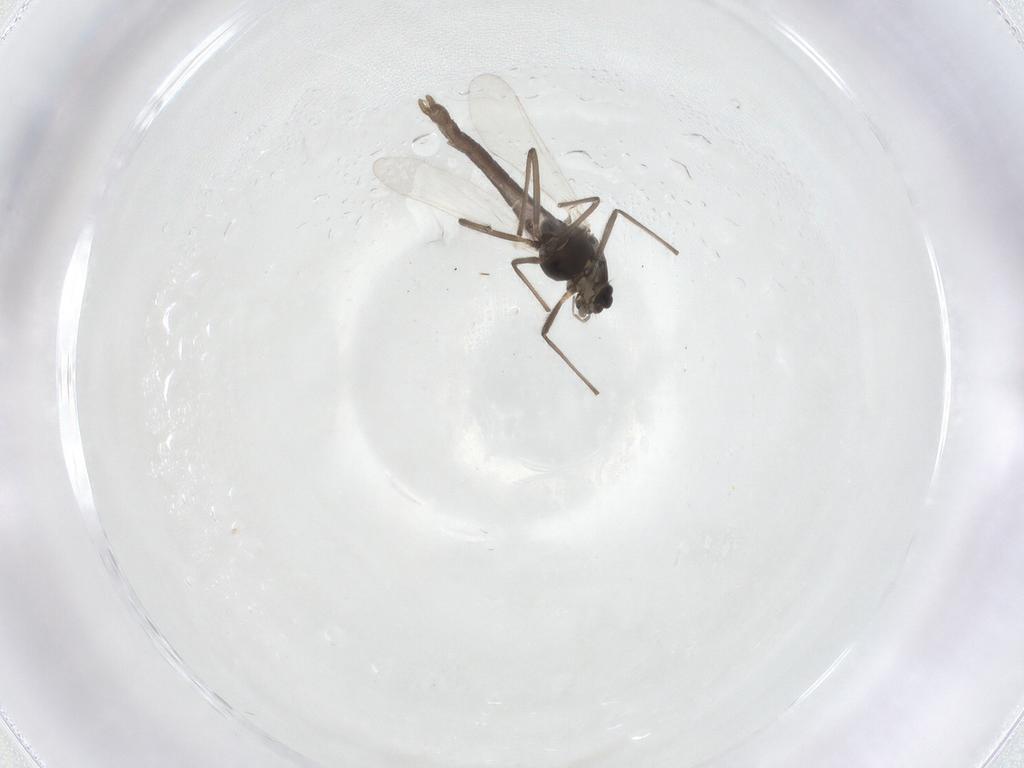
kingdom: Animalia
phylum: Arthropoda
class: Insecta
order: Diptera
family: Chironomidae
